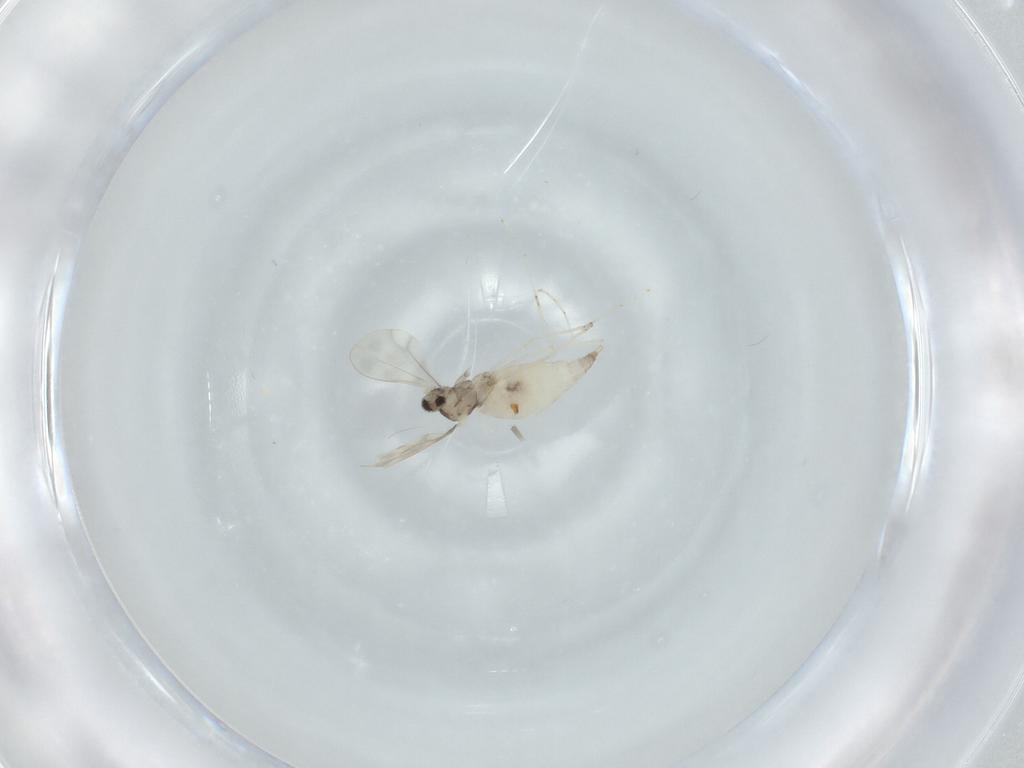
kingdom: Animalia
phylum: Arthropoda
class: Insecta
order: Diptera
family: Cecidomyiidae
